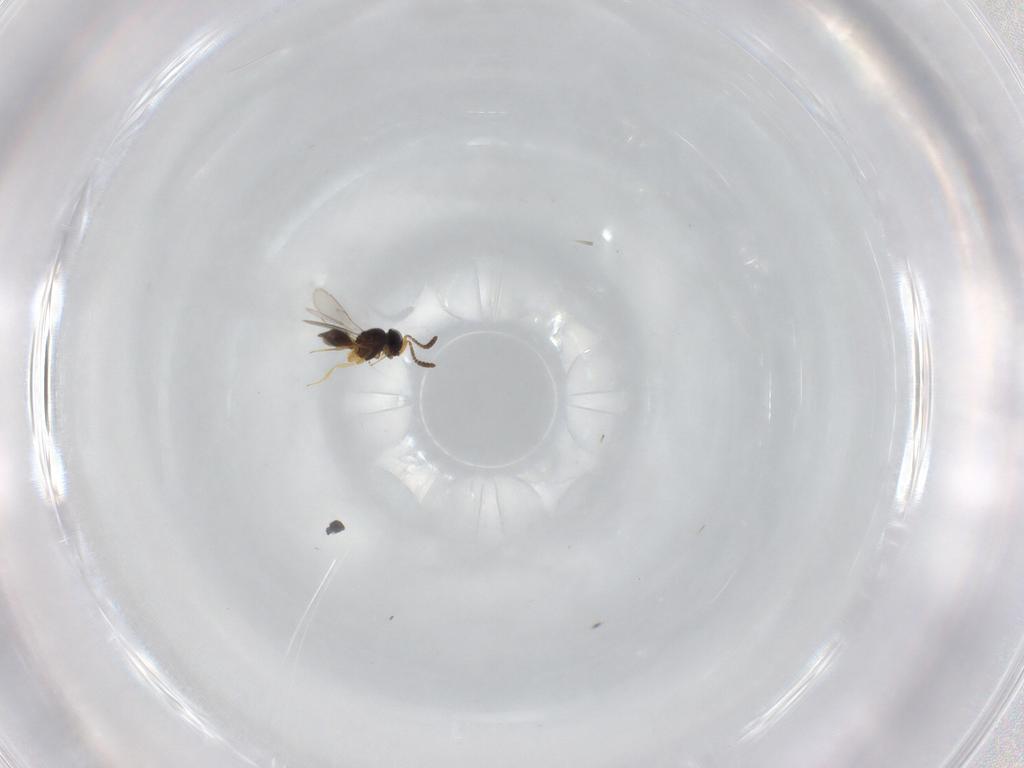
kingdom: Animalia
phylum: Arthropoda
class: Insecta
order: Hymenoptera
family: Scelionidae
